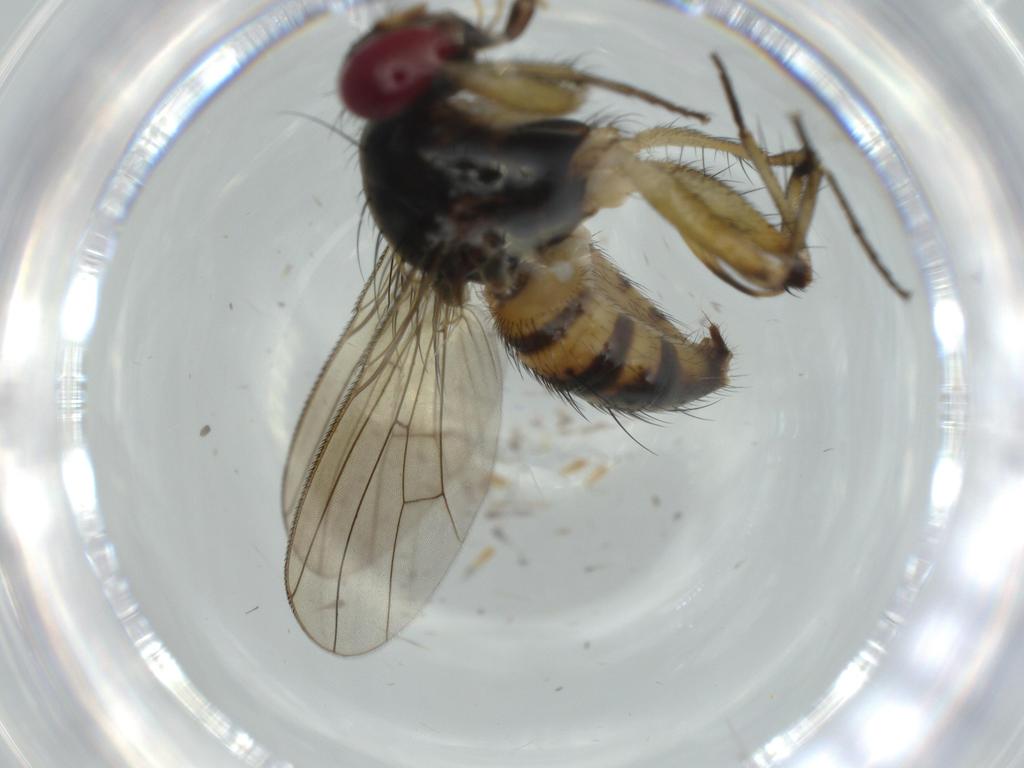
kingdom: Animalia
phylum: Arthropoda
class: Insecta
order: Diptera
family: Muscidae
